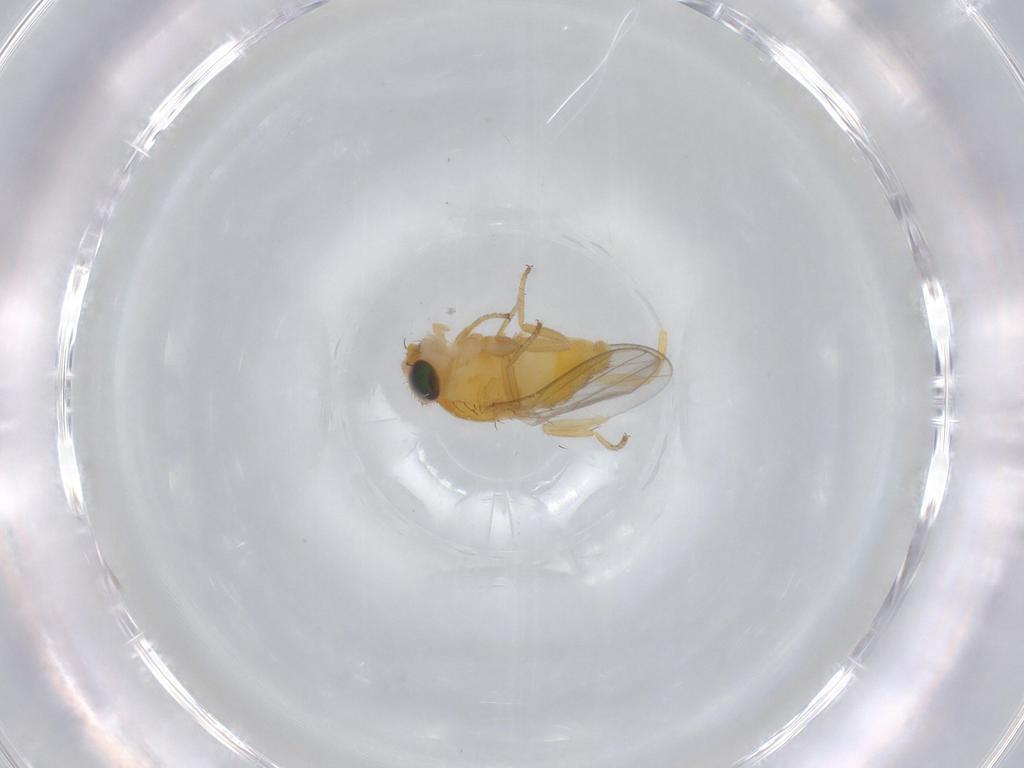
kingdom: Animalia
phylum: Arthropoda
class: Insecta
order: Diptera
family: Chloropidae
